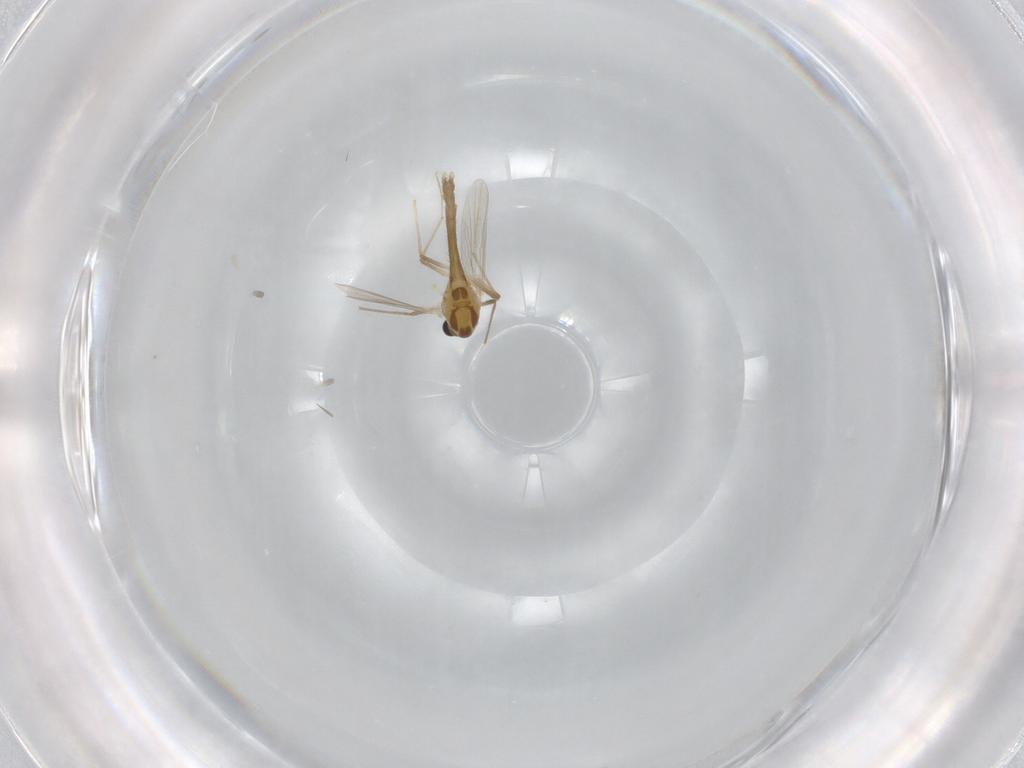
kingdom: Animalia
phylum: Arthropoda
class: Insecta
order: Diptera
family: Chironomidae
